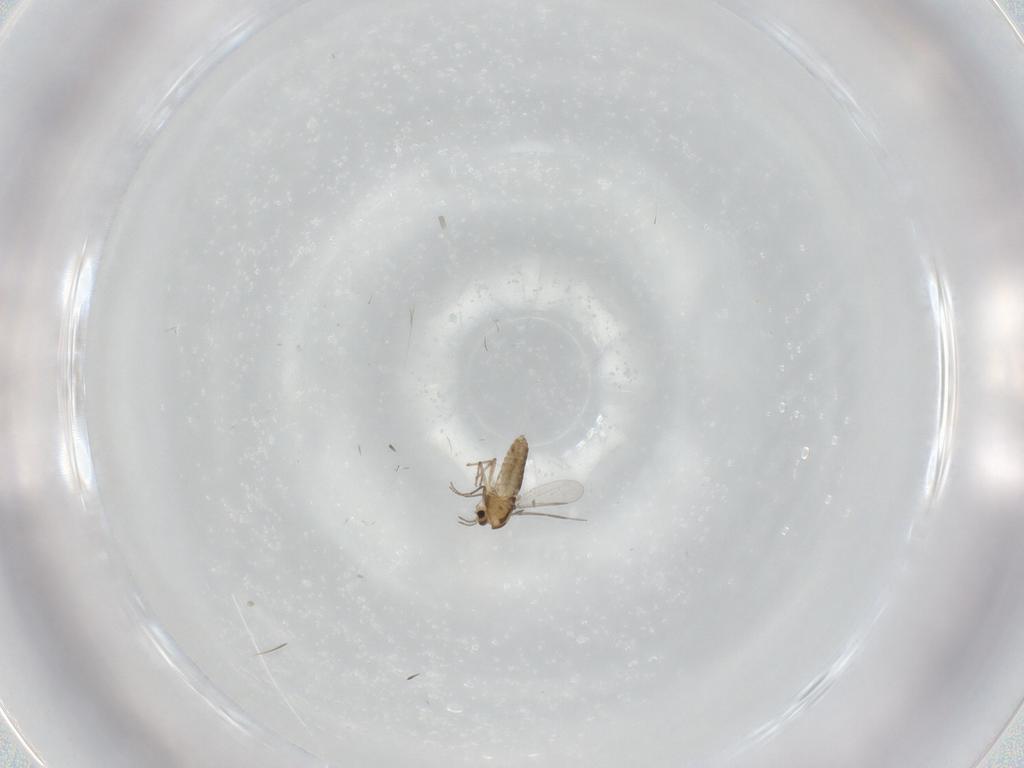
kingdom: Animalia
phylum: Arthropoda
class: Insecta
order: Diptera
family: Chironomidae
